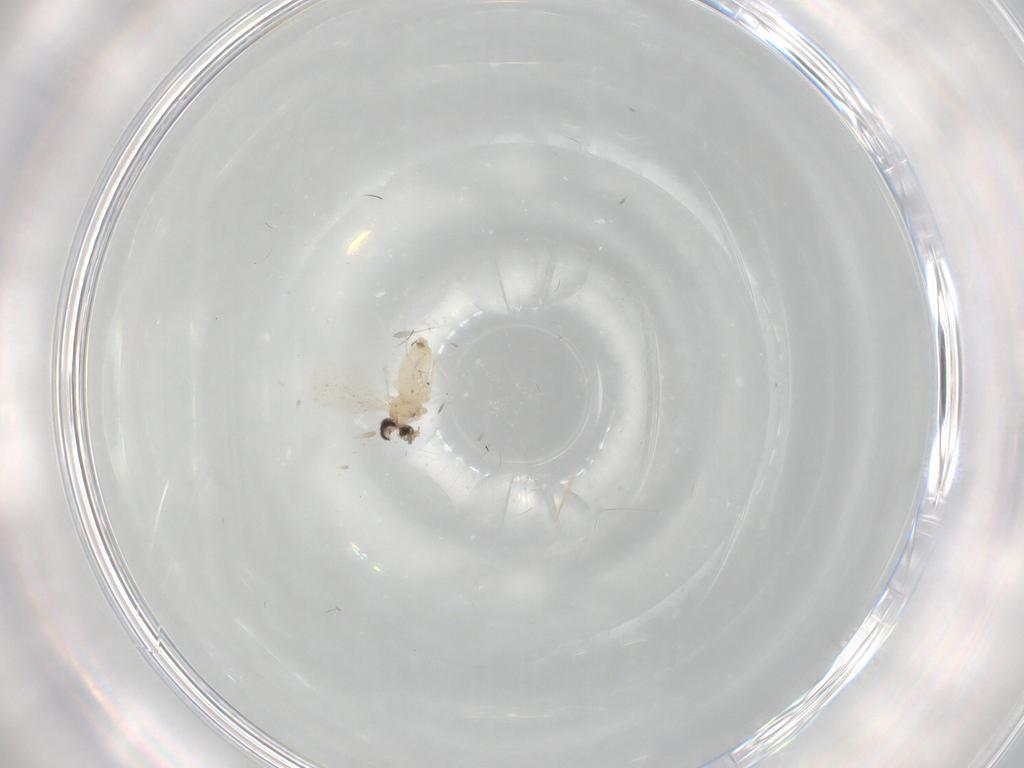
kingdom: Animalia
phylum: Arthropoda
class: Insecta
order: Diptera
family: Cecidomyiidae
